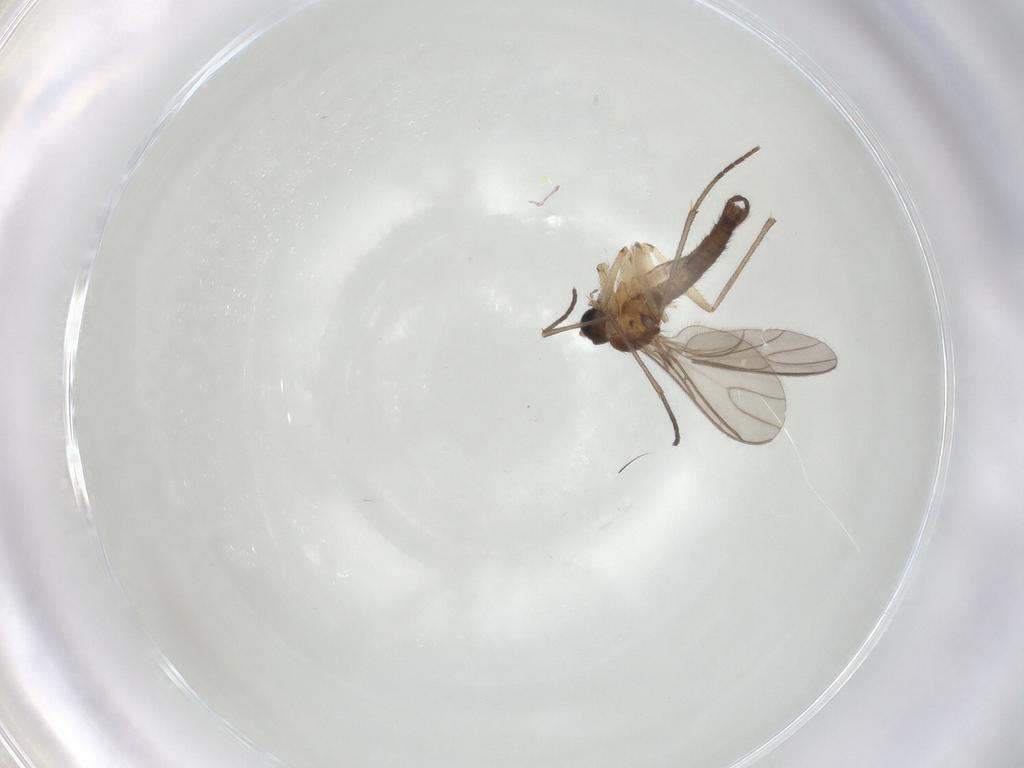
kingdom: Animalia
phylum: Arthropoda
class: Insecta
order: Diptera
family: Sciaridae
